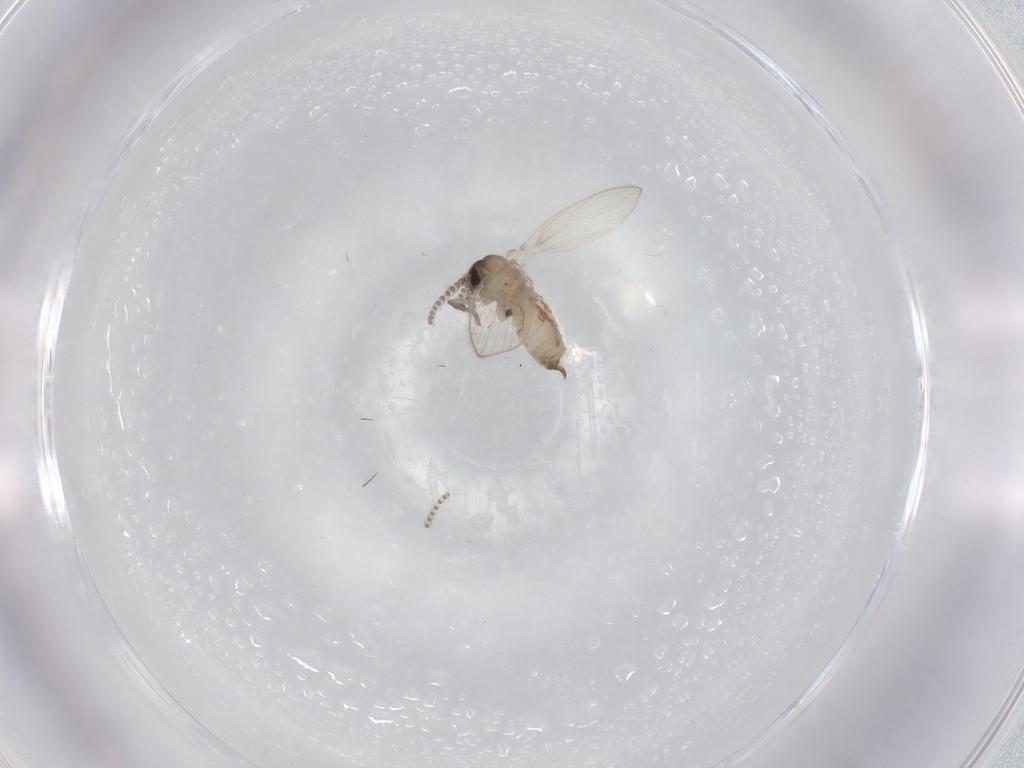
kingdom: Animalia
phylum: Arthropoda
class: Insecta
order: Diptera
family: Psychodidae
